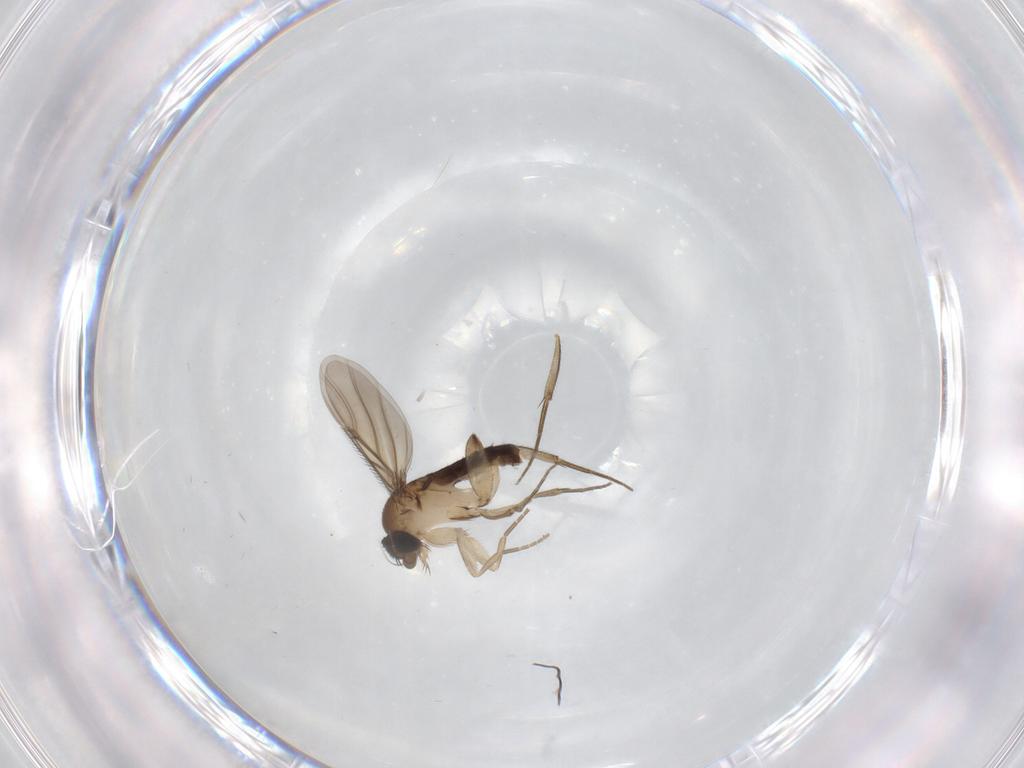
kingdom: Animalia
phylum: Arthropoda
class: Insecta
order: Diptera
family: Phoridae
